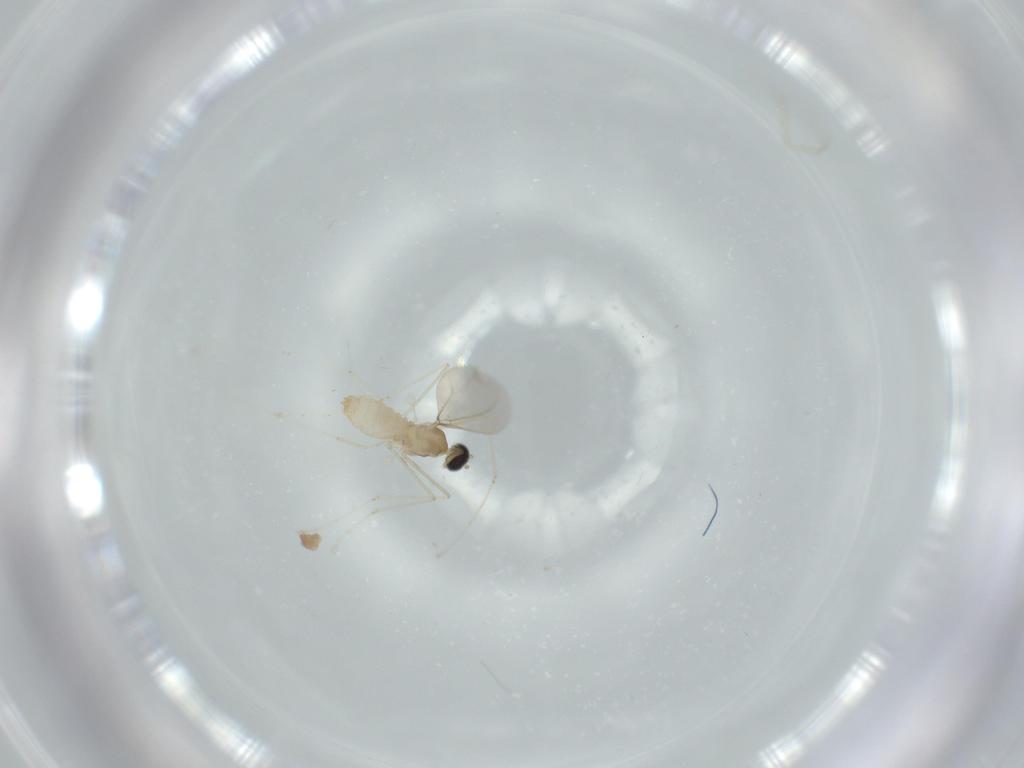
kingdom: Animalia
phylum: Arthropoda
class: Insecta
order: Diptera
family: Cecidomyiidae
